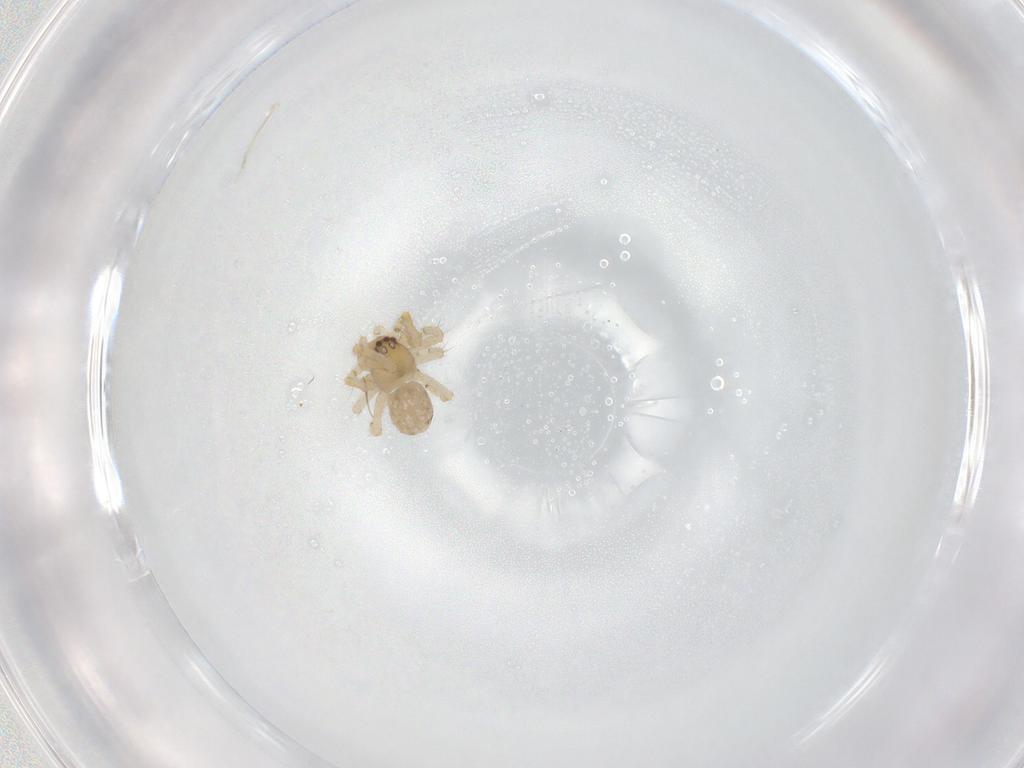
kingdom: Animalia
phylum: Arthropoda
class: Arachnida
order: Araneae
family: Theridiidae
